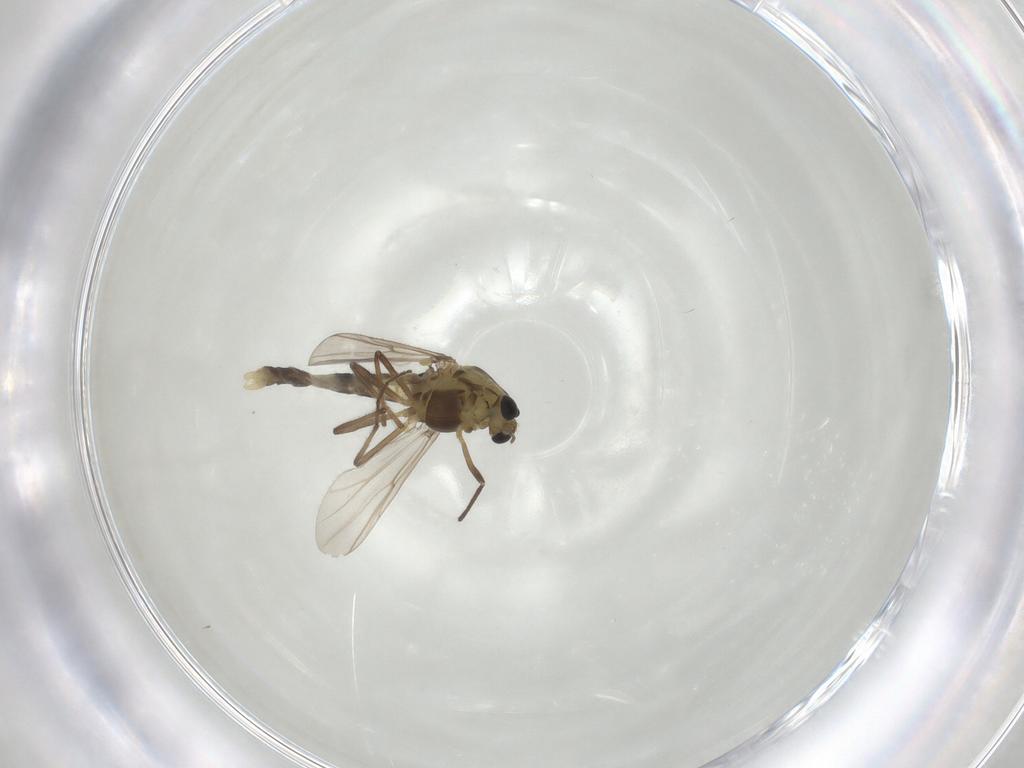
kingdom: Animalia
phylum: Arthropoda
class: Insecta
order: Diptera
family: Chironomidae
